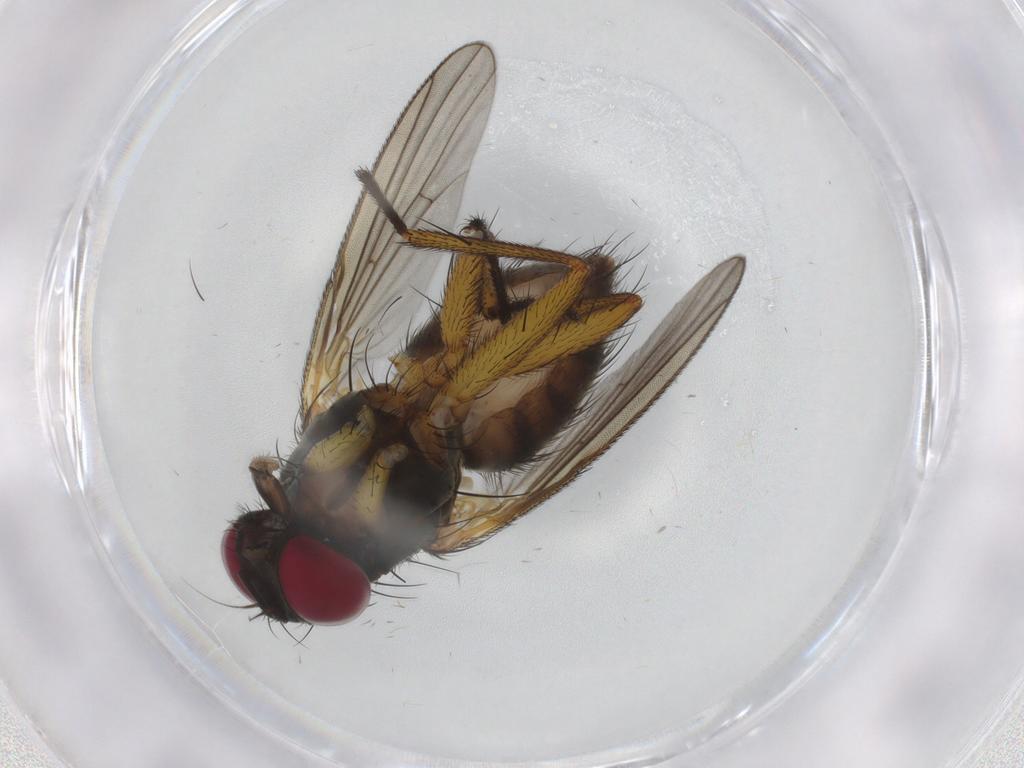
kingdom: Animalia
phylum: Arthropoda
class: Insecta
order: Diptera
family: Muscidae
